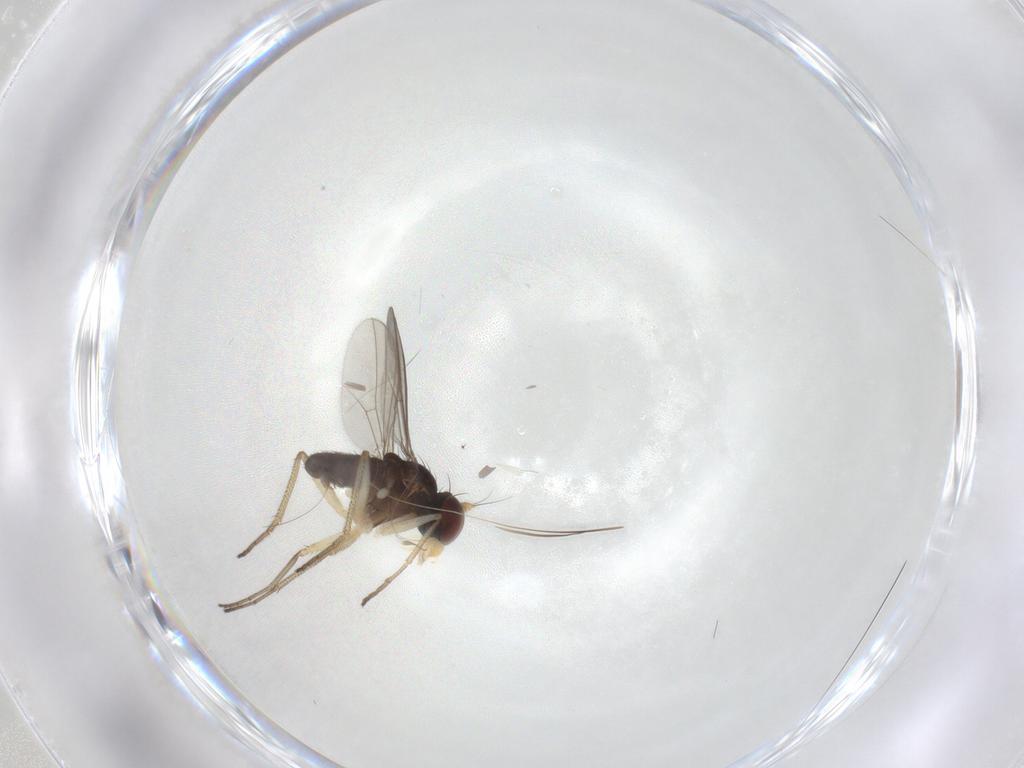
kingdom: Animalia
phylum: Arthropoda
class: Insecta
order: Diptera
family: Dolichopodidae
